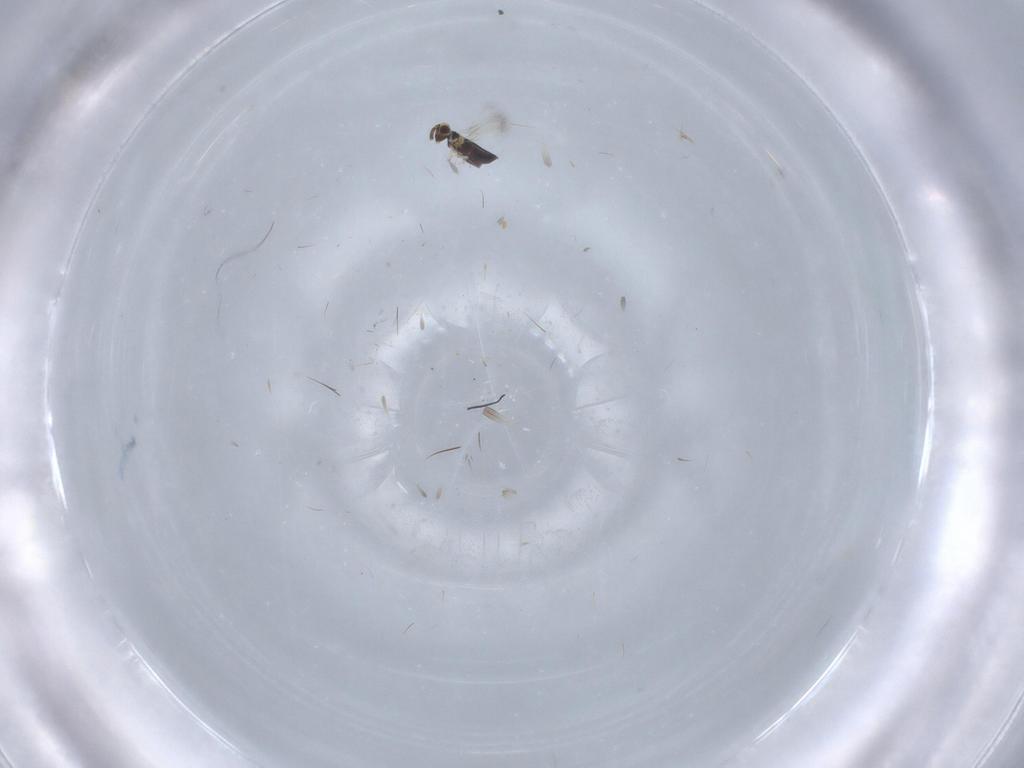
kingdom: Animalia
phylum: Arthropoda
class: Insecta
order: Hymenoptera
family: Signiphoridae
